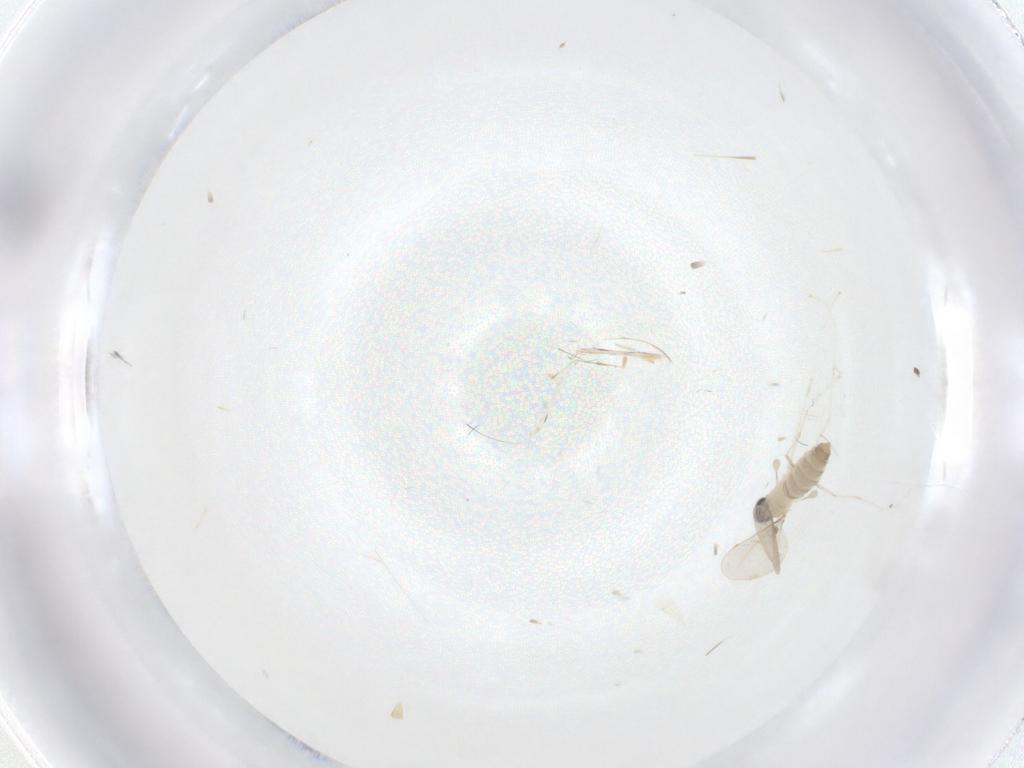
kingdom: Animalia
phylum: Arthropoda
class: Insecta
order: Diptera
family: Cecidomyiidae
